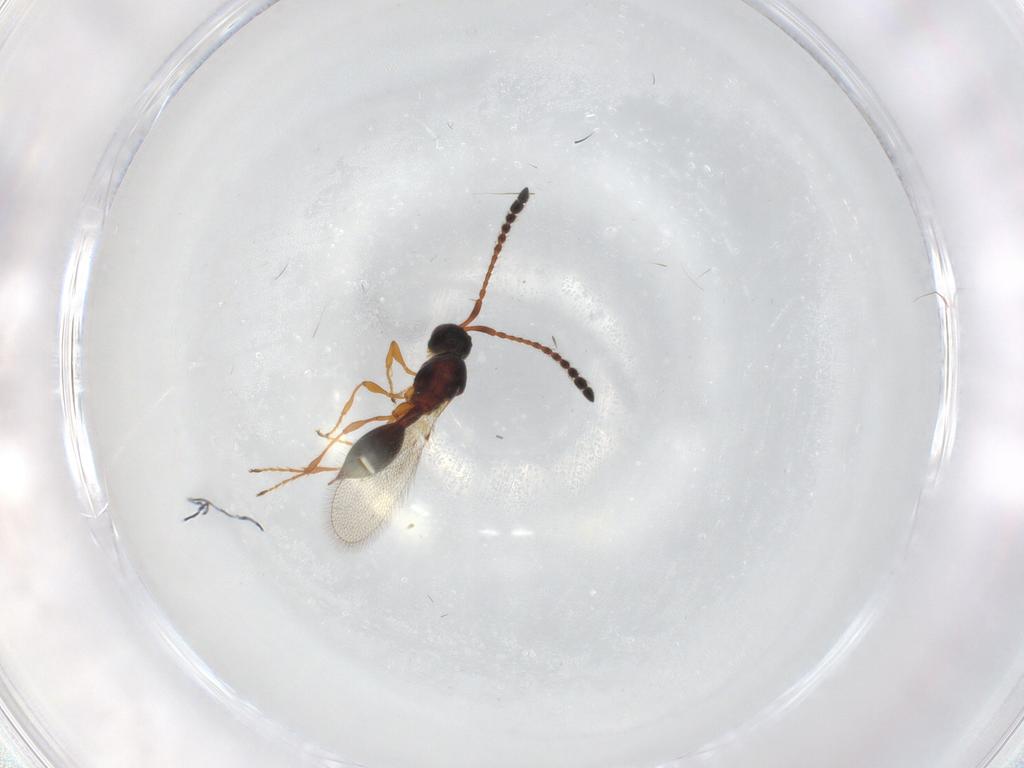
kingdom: Animalia
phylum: Arthropoda
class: Insecta
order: Hymenoptera
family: Diapriidae
